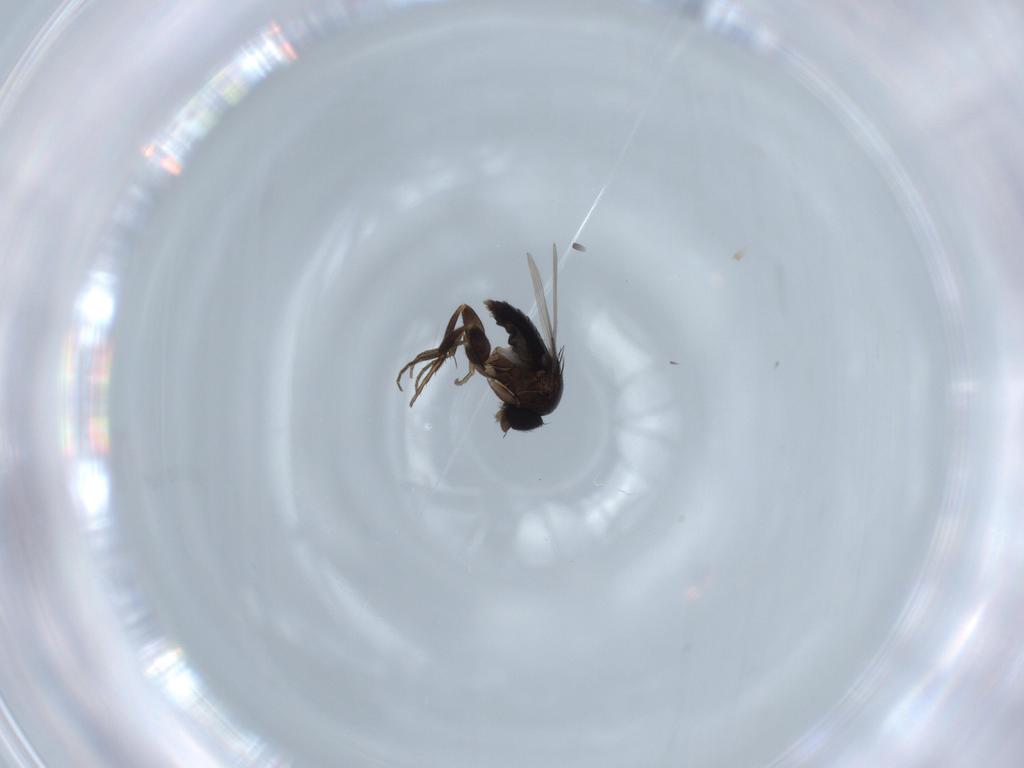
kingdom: Animalia
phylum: Arthropoda
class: Insecta
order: Diptera
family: Phoridae
